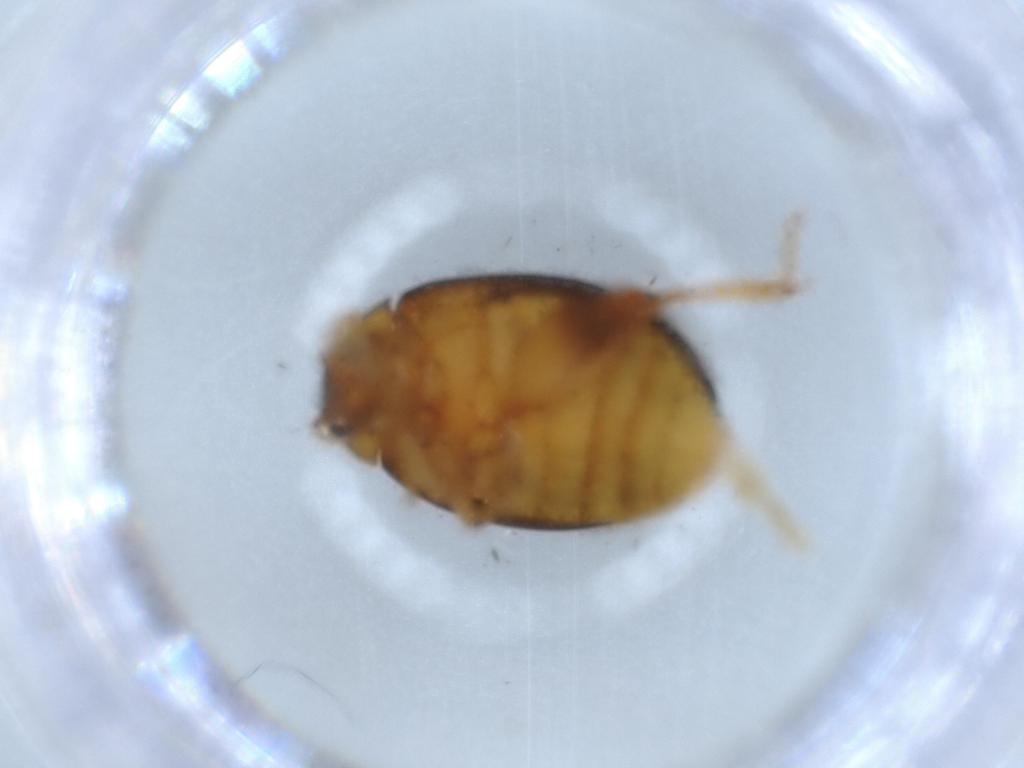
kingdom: Animalia
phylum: Arthropoda
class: Insecta
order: Coleoptera
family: Scirtidae
